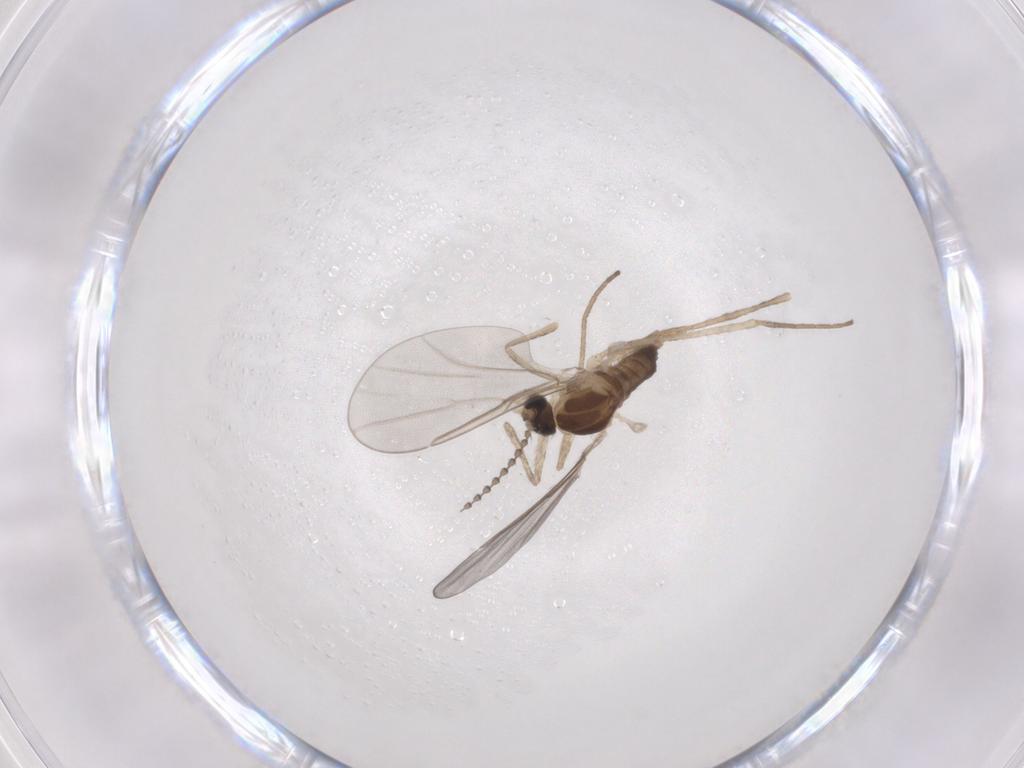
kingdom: Animalia
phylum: Arthropoda
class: Insecta
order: Diptera
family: Cecidomyiidae
